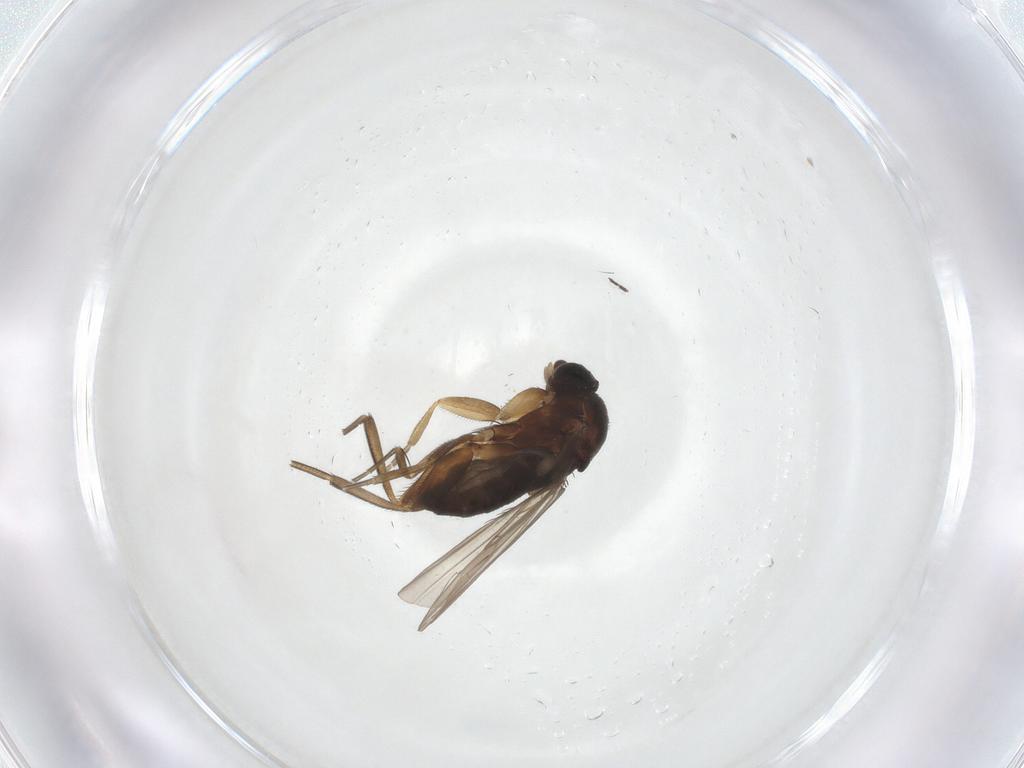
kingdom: Animalia
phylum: Arthropoda
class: Insecta
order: Diptera
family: Phoridae
